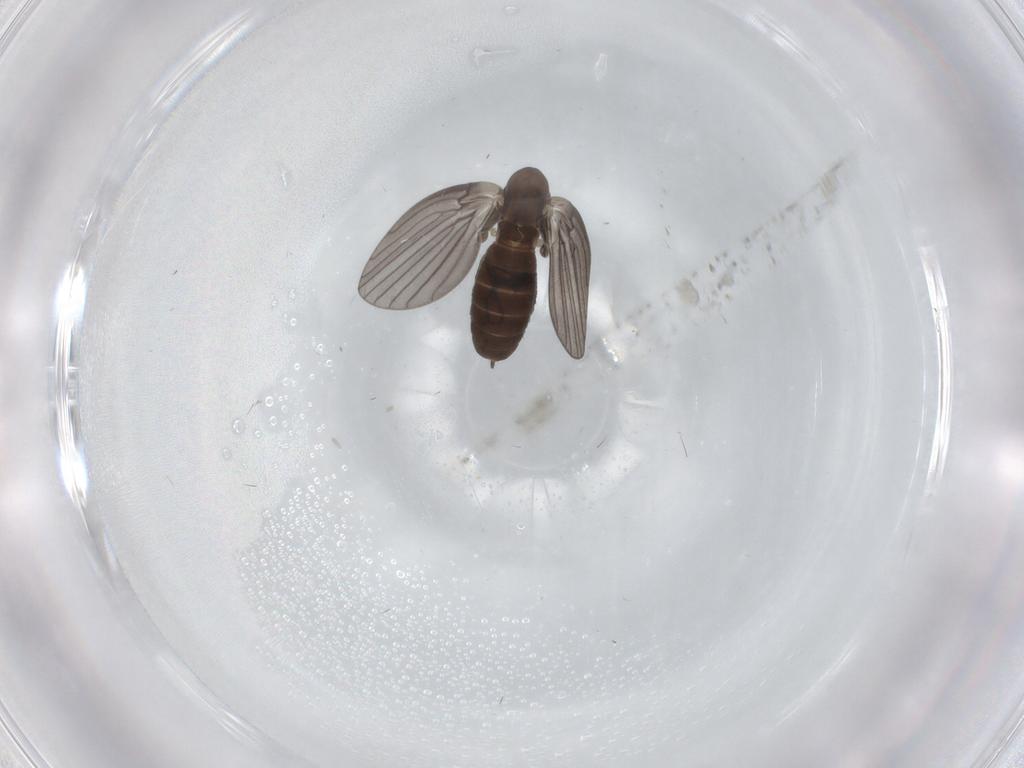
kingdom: Animalia
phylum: Arthropoda
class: Insecta
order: Diptera
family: Psychodidae
